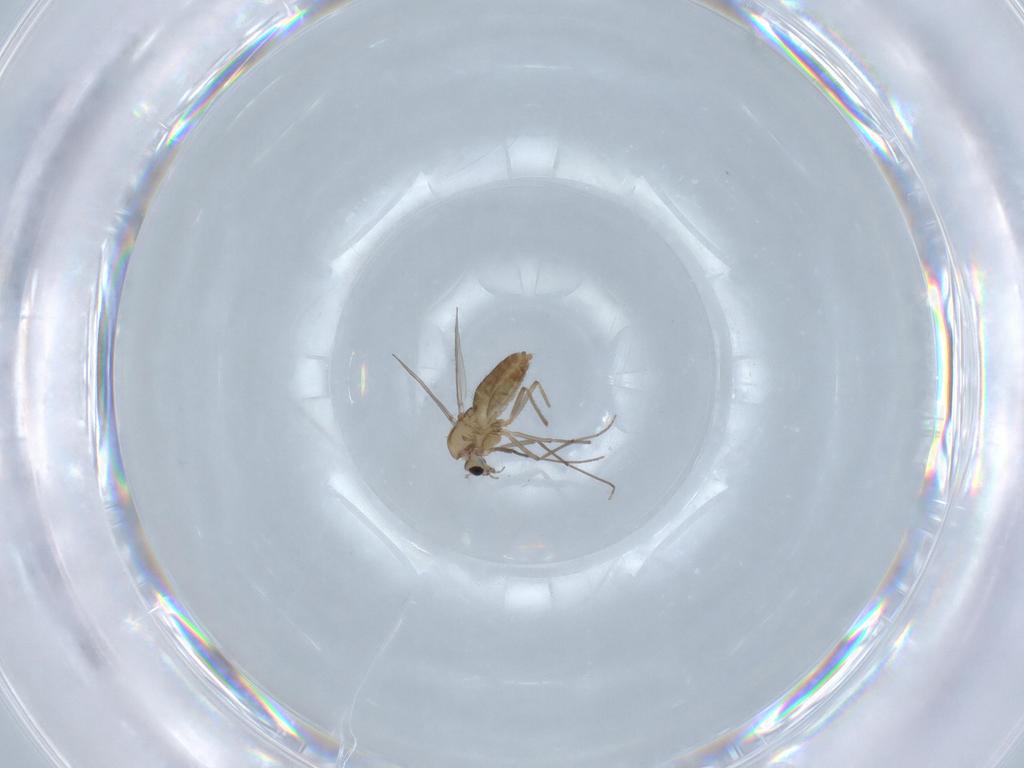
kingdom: Animalia
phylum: Arthropoda
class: Insecta
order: Diptera
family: Chironomidae
